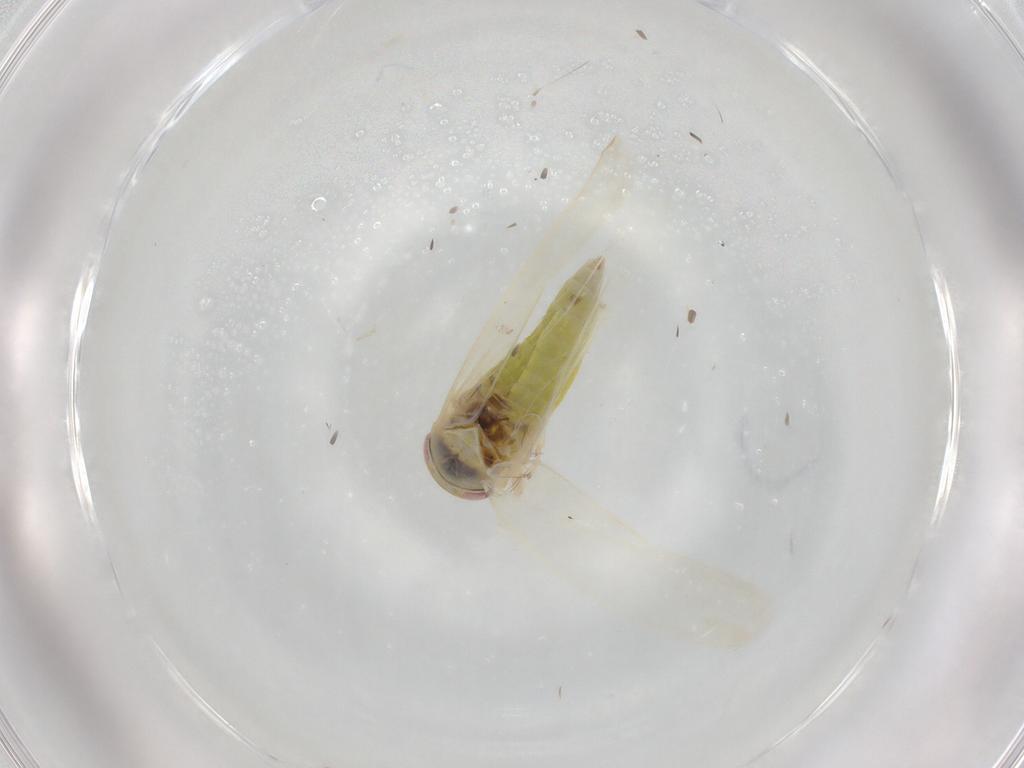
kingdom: Animalia
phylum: Arthropoda
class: Insecta
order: Hemiptera
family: Cicadellidae
